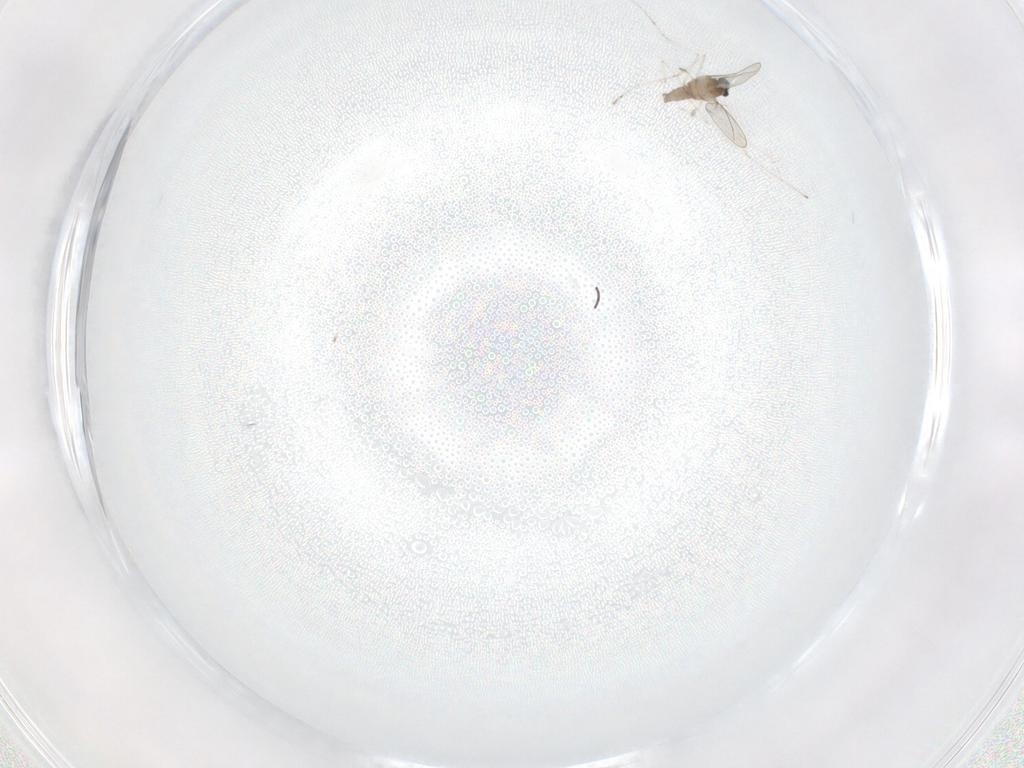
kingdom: Animalia
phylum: Arthropoda
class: Insecta
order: Diptera
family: Cecidomyiidae
